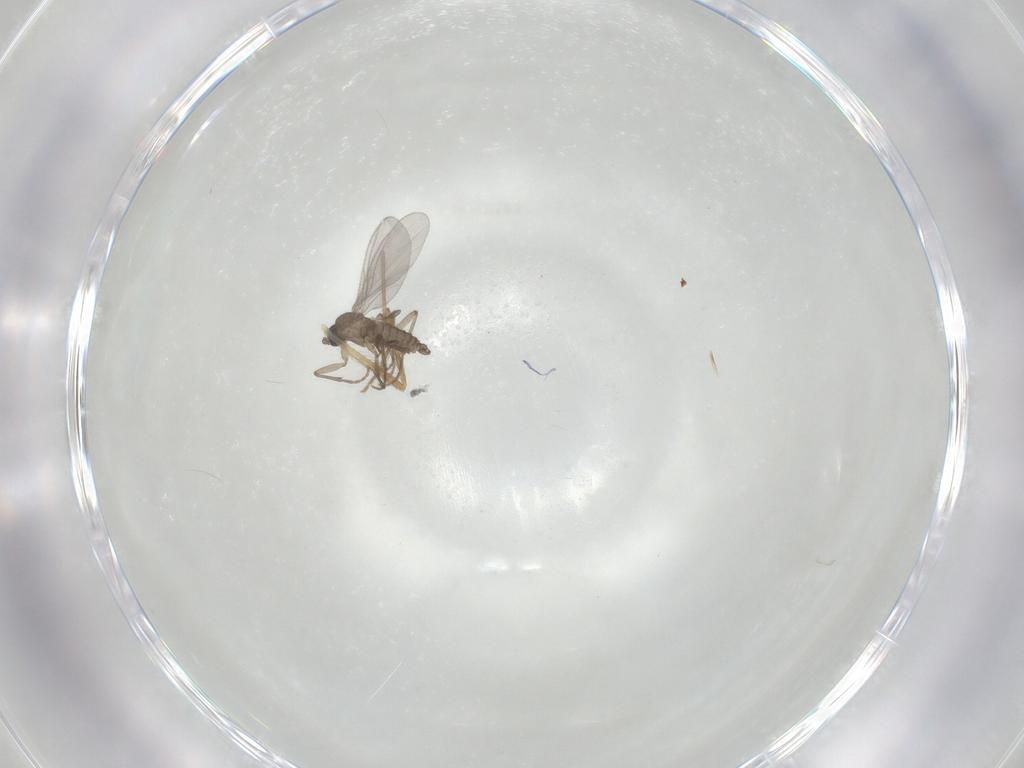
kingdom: Animalia
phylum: Arthropoda
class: Insecta
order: Diptera
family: Chironomidae
